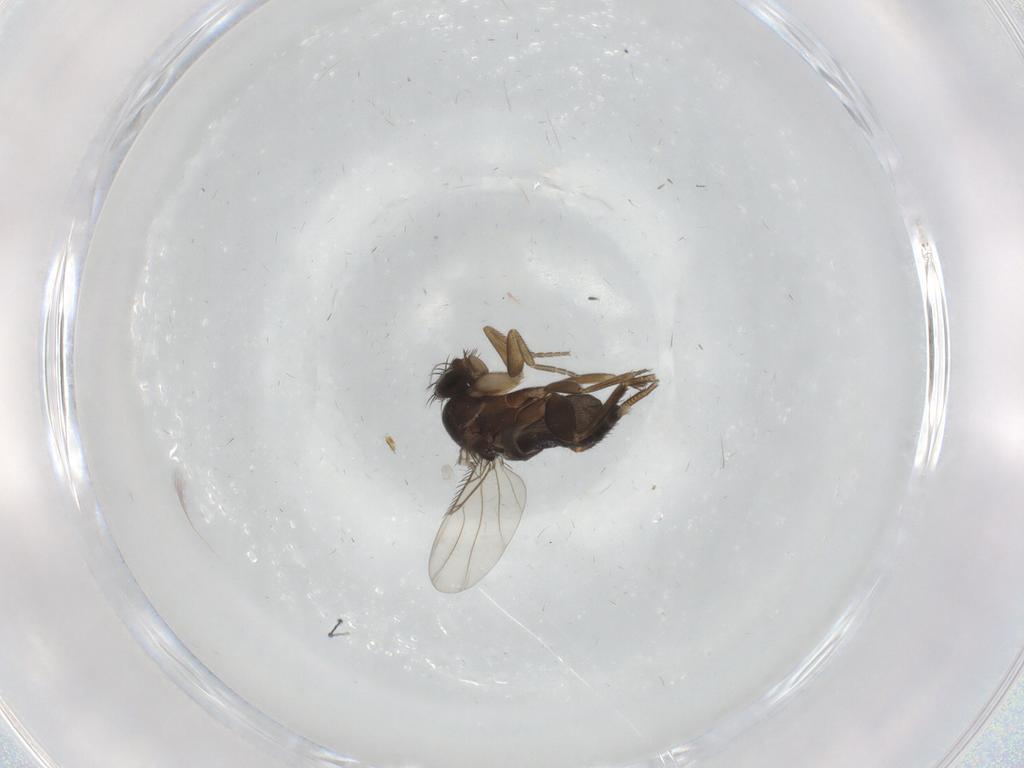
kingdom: Animalia
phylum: Arthropoda
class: Insecta
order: Diptera
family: Phoridae
